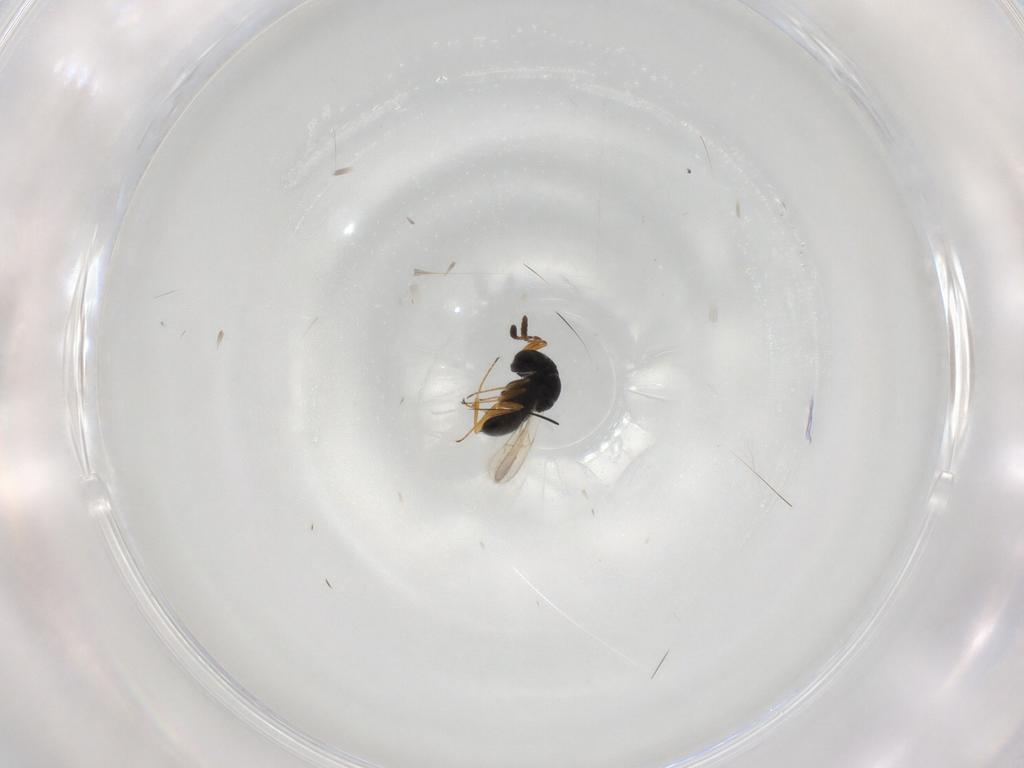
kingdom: Animalia
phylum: Arthropoda
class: Insecta
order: Hymenoptera
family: Scelionidae
